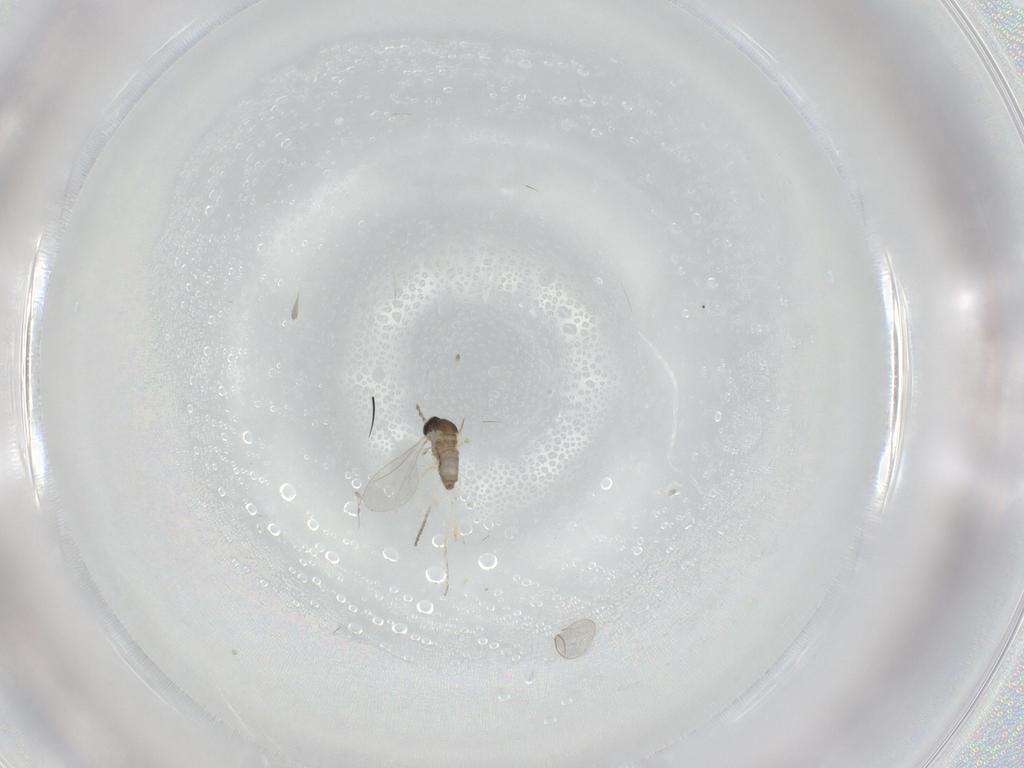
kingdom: Animalia
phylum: Arthropoda
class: Insecta
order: Diptera
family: Cecidomyiidae
